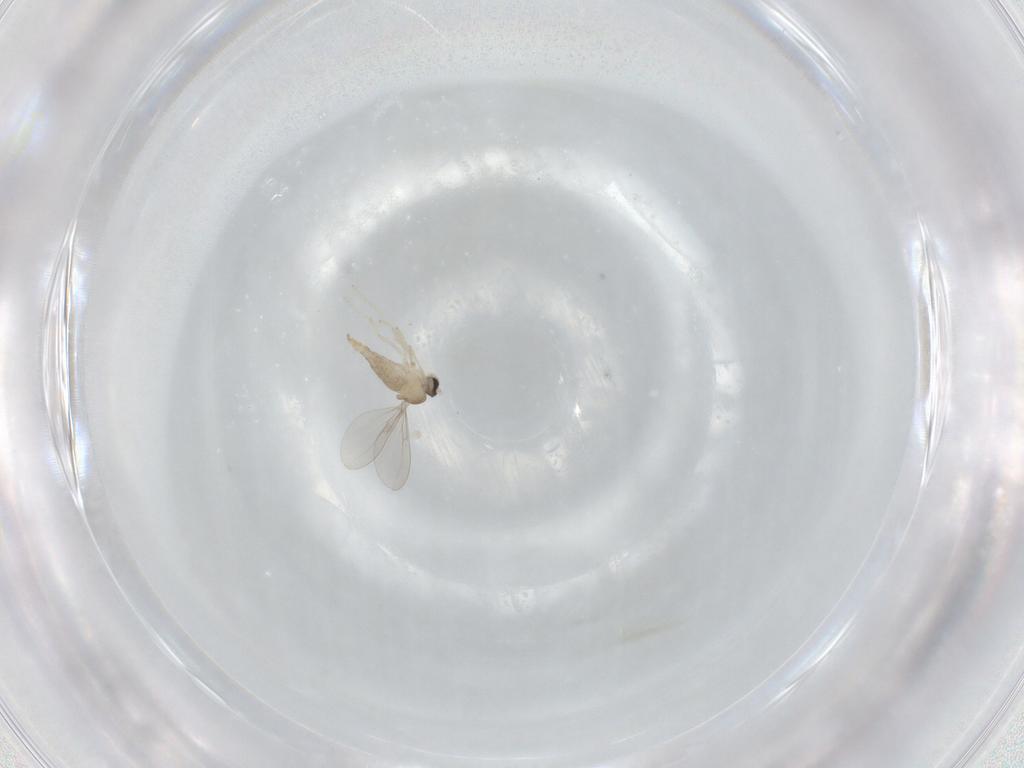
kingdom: Animalia
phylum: Arthropoda
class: Insecta
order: Diptera
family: Cecidomyiidae
